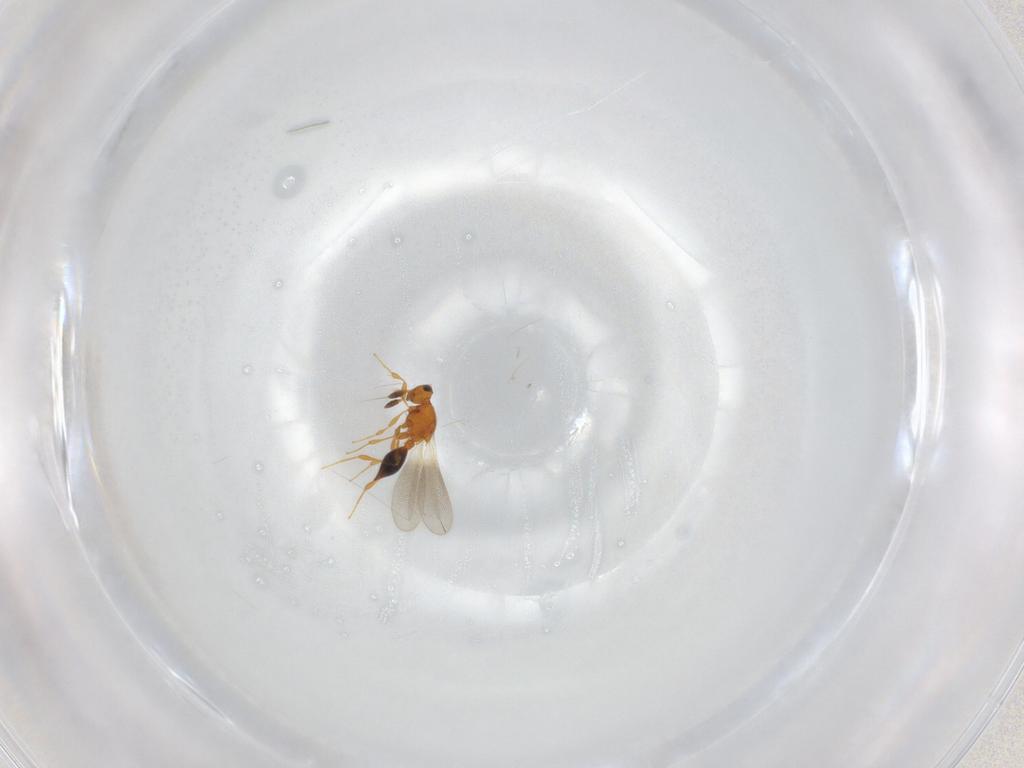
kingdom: Animalia
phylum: Arthropoda
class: Insecta
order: Hymenoptera
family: Platygastridae
